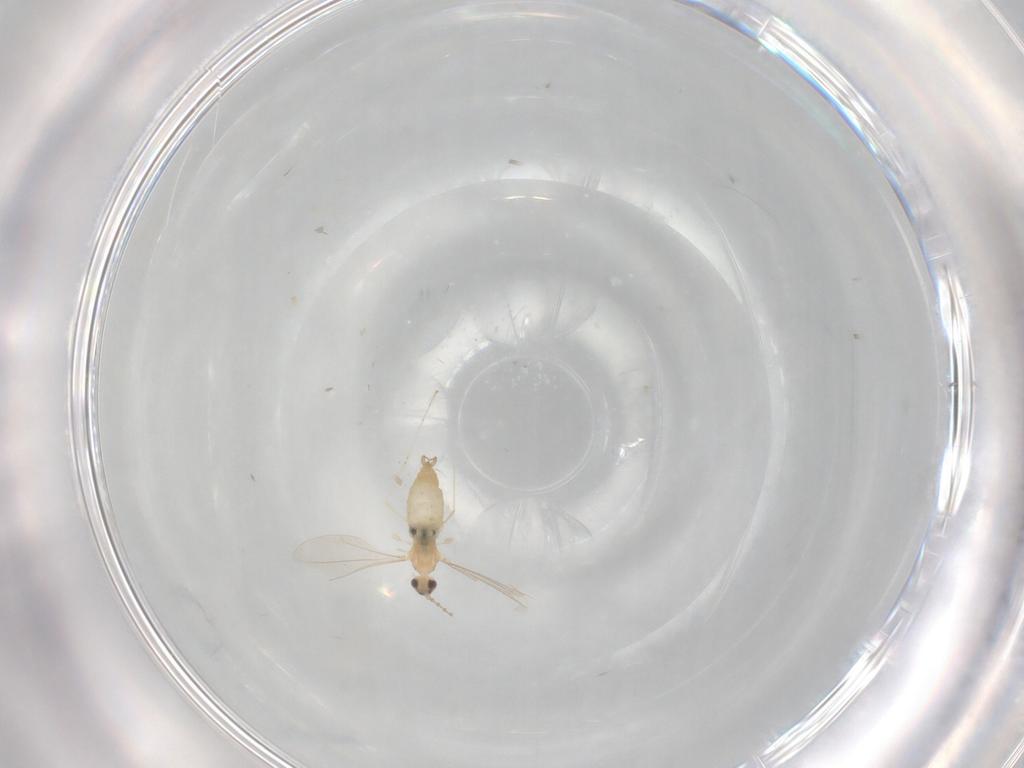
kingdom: Animalia
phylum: Arthropoda
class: Insecta
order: Diptera
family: Cecidomyiidae
